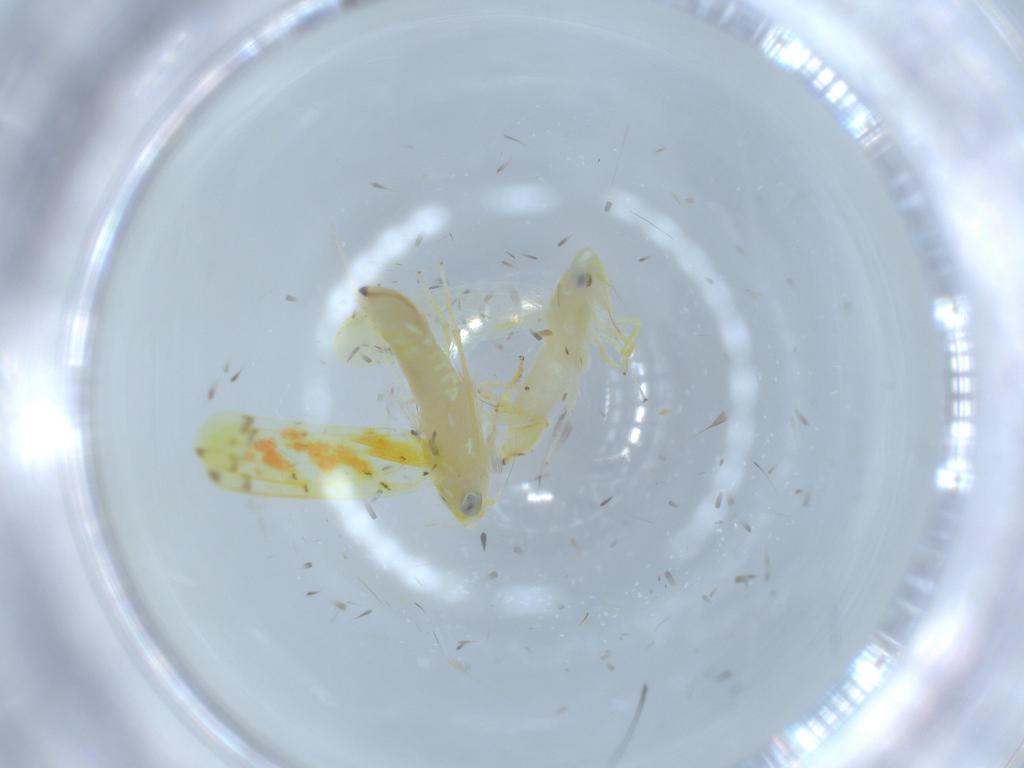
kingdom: Animalia
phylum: Arthropoda
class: Insecta
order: Hemiptera
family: Cicadellidae
